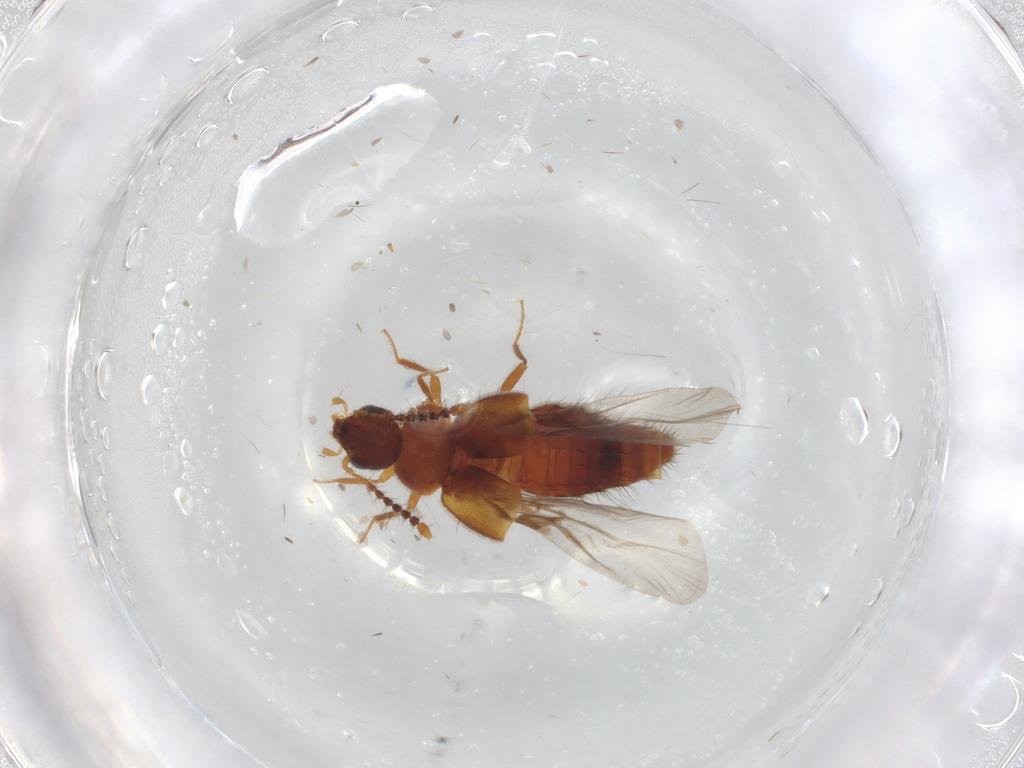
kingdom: Animalia
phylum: Arthropoda
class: Insecta
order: Coleoptera
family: Staphylinidae
